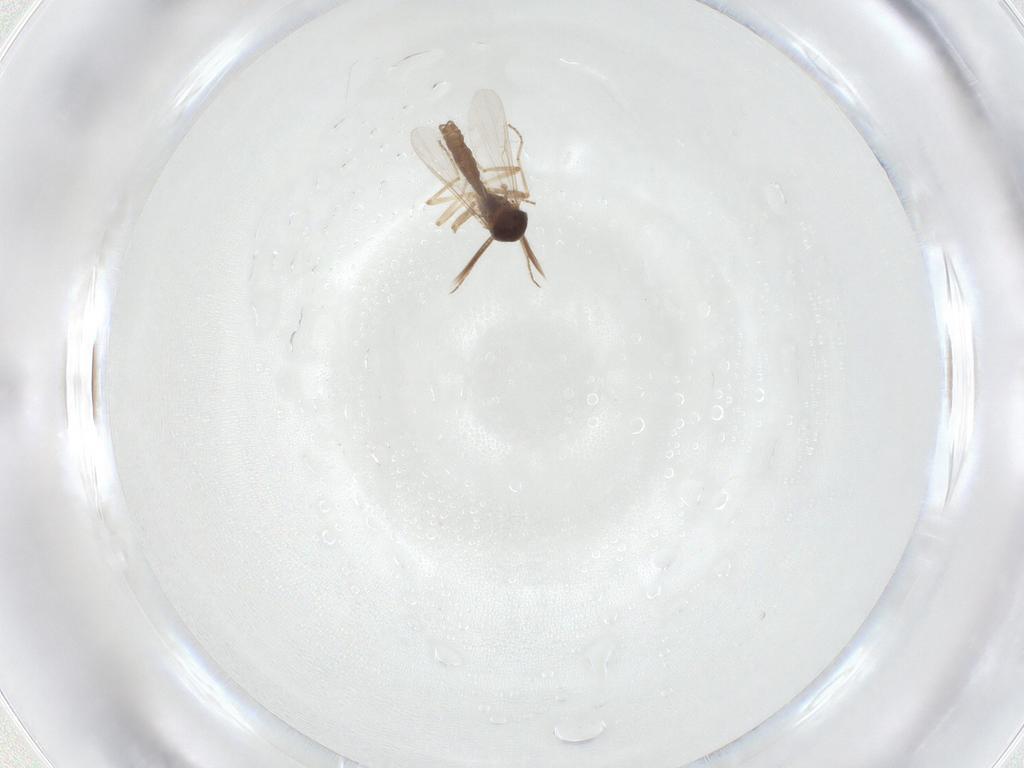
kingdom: Animalia
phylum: Arthropoda
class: Insecta
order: Diptera
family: Ceratopogonidae
